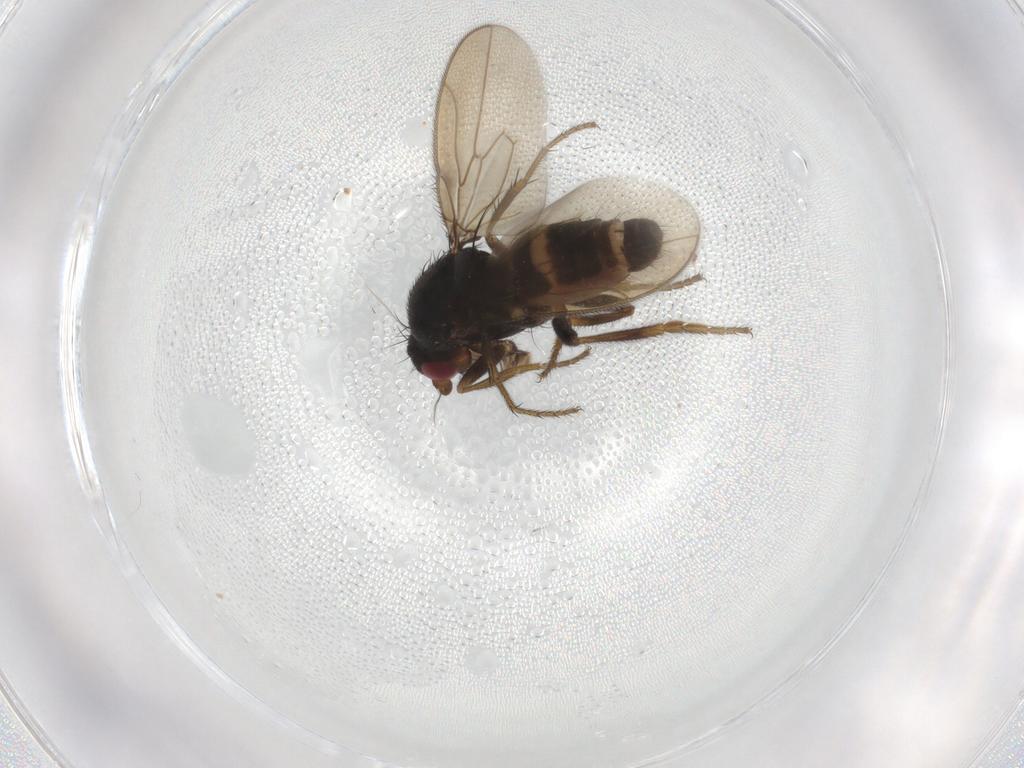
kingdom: Animalia
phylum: Arthropoda
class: Insecta
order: Diptera
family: Sphaeroceridae
